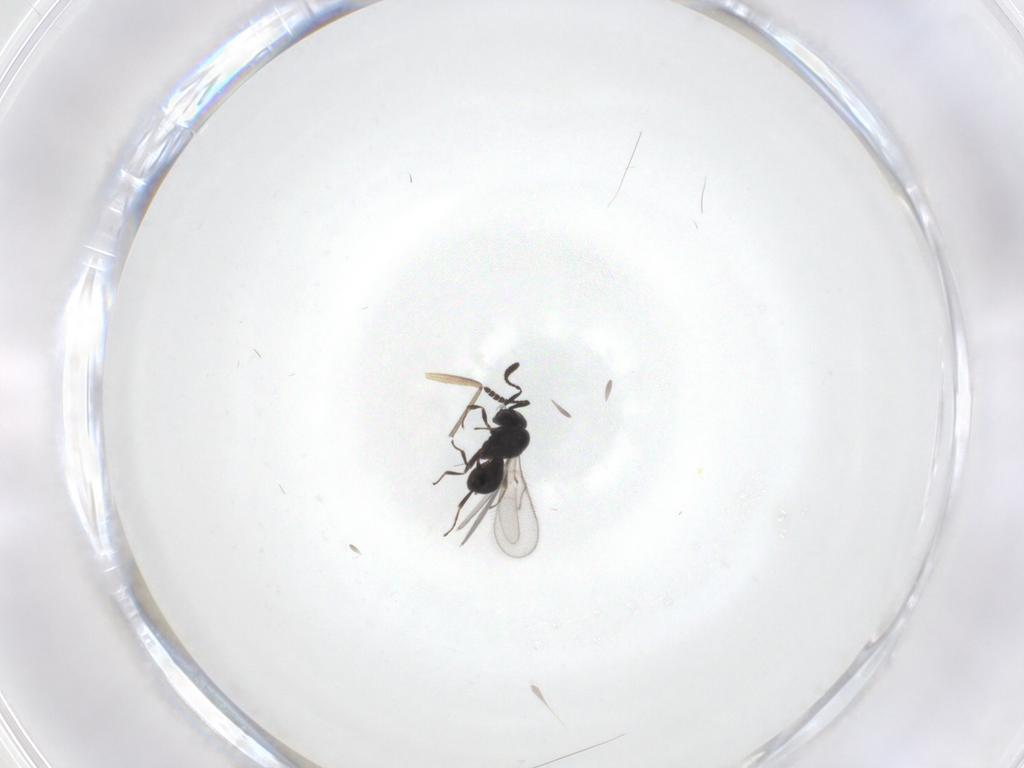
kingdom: Animalia
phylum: Arthropoda
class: Insecta
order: Hymenoptera
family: Scelionidae
